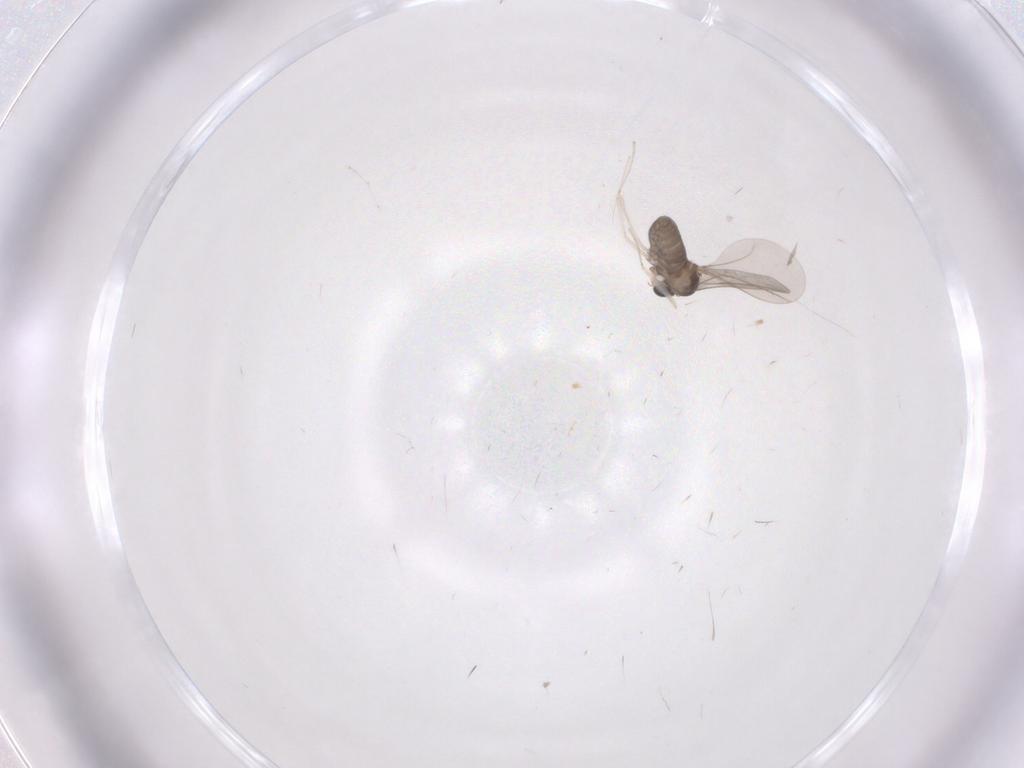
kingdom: Animalia
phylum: Arthropoda
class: Insecta
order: Diptera
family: Cecidomyiidae
